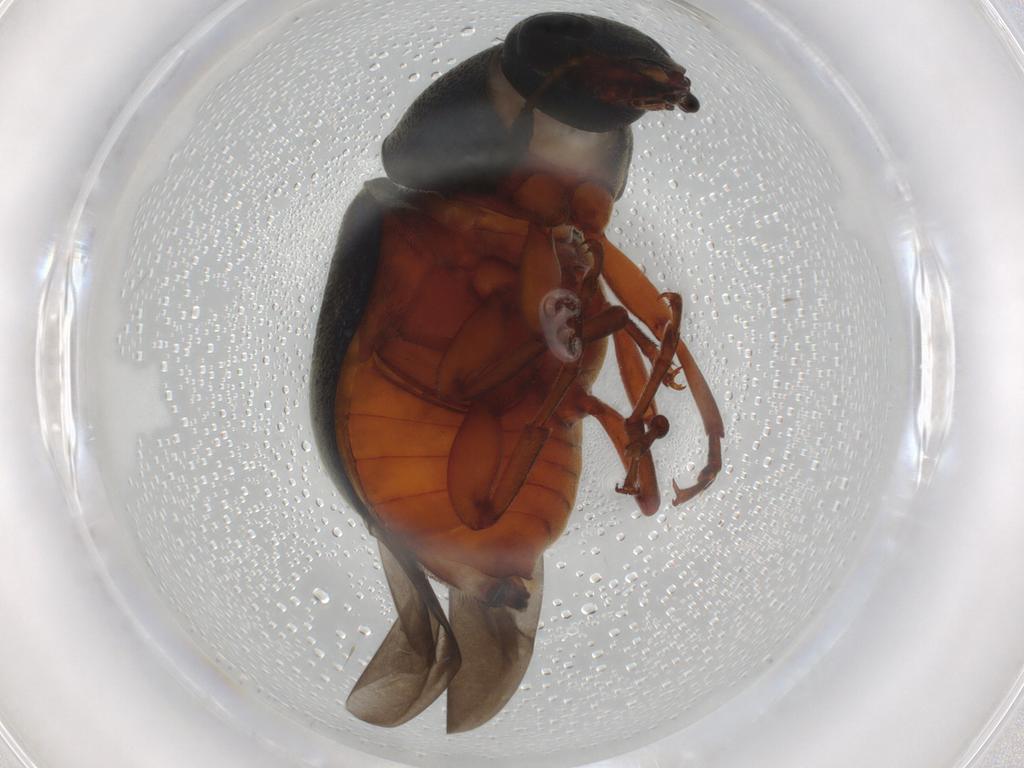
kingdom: Animalia
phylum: Arthropoda
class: Insecta
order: Coleoptera
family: Anthribidae
